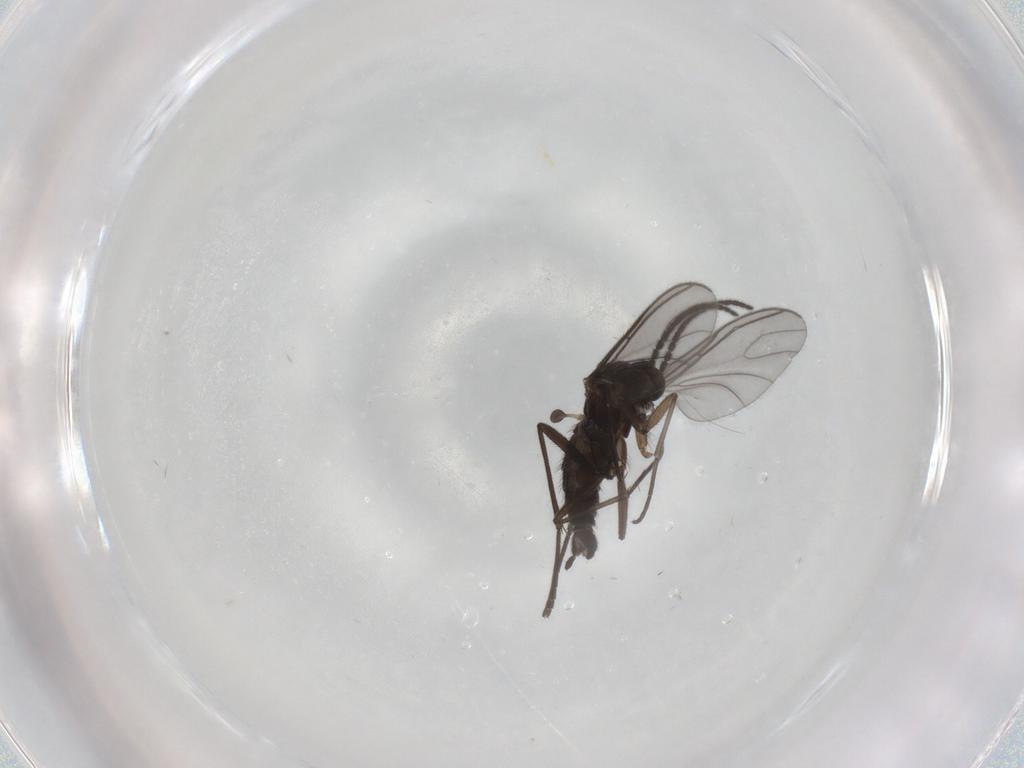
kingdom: Animalia
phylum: Arthropoda
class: Insecta
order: Diptera
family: Sciaridae
